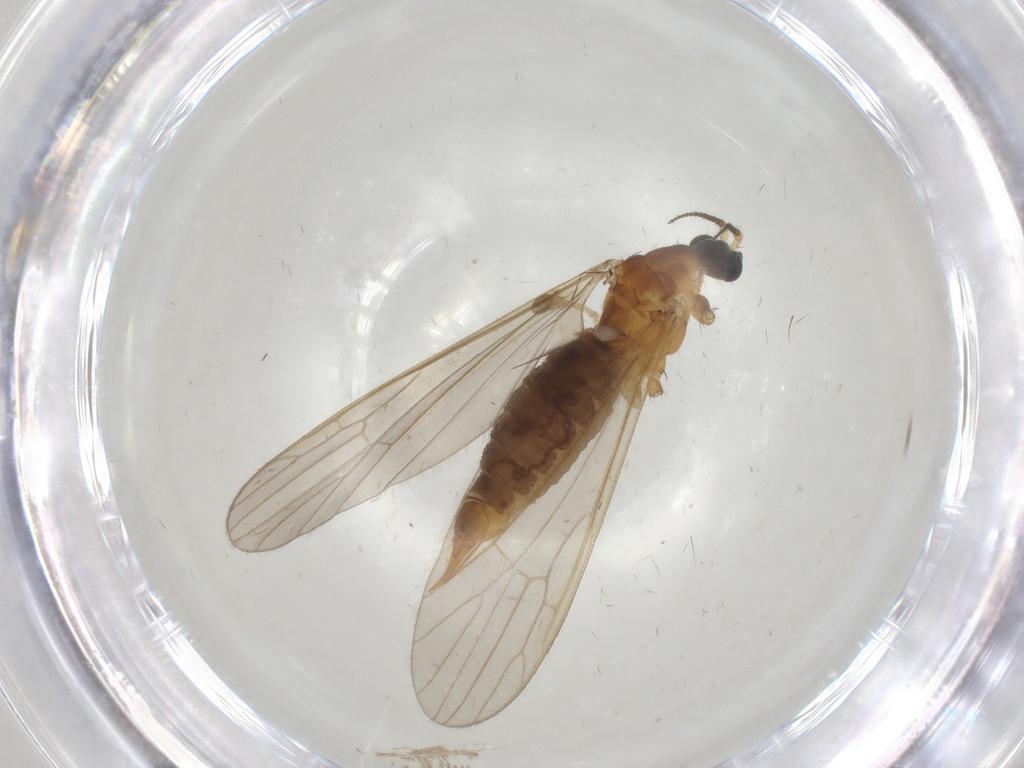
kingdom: Animalia
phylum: Arthropoda
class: Insecta
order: Diptera
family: Limoniidae
